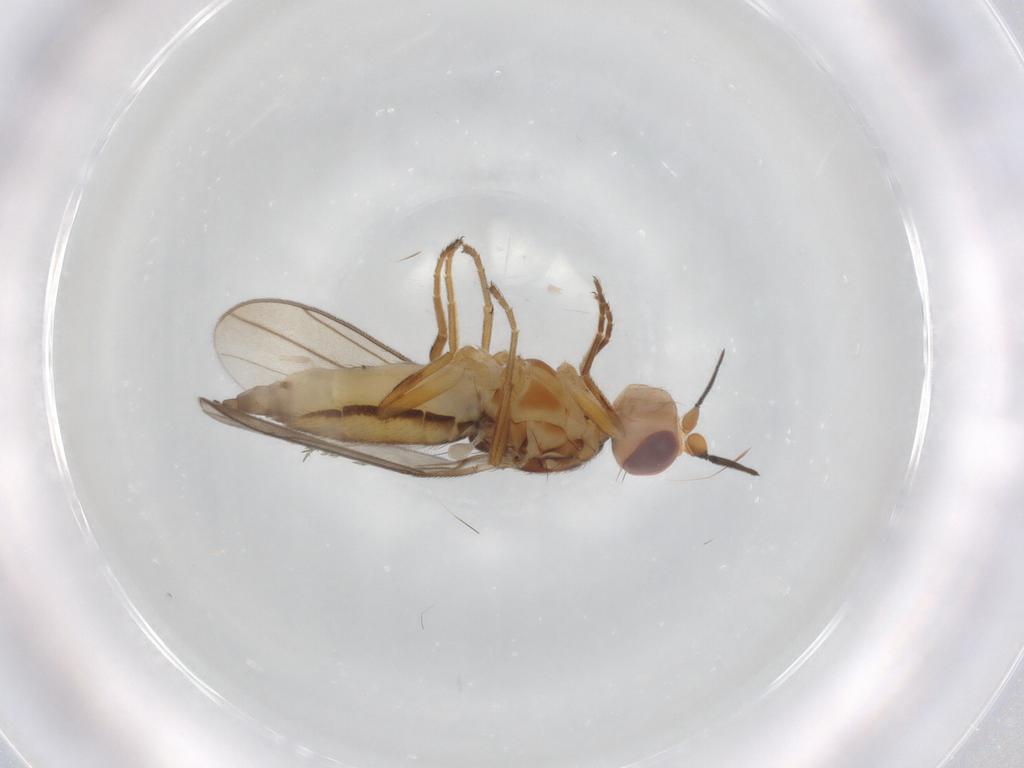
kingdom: Animalia
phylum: Arthropoda
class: Insecta
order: Diptera
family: Chloropidae
